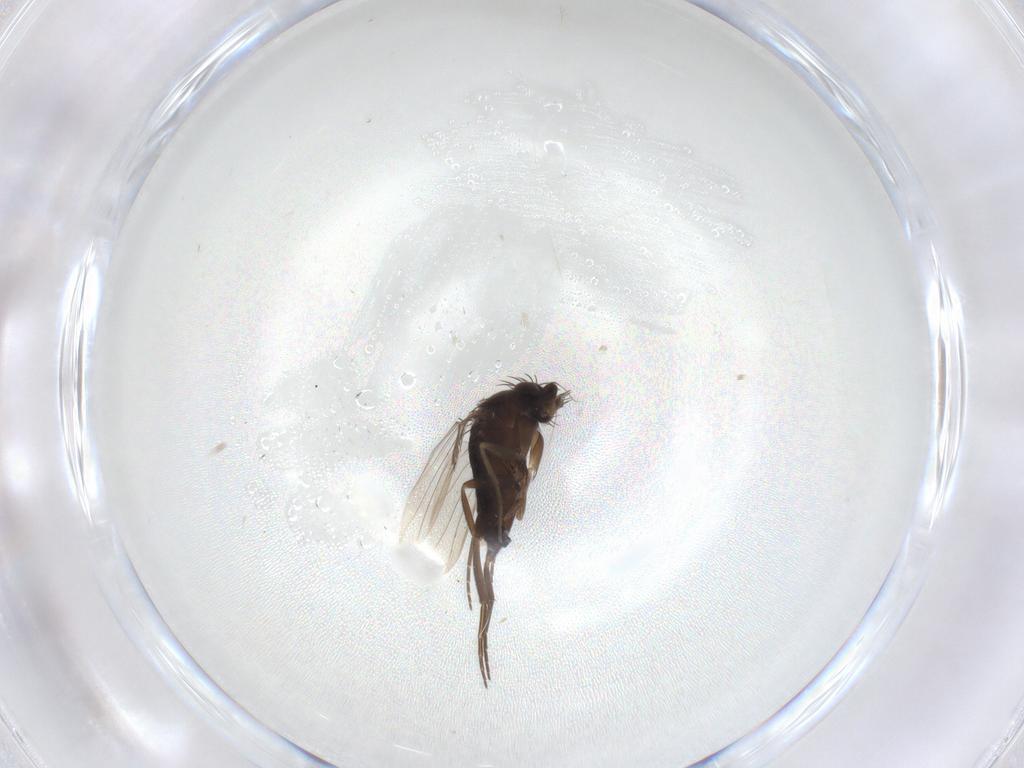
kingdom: Animalia
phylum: Arthropoda
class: Insecta
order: Diptera
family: Phoridae
